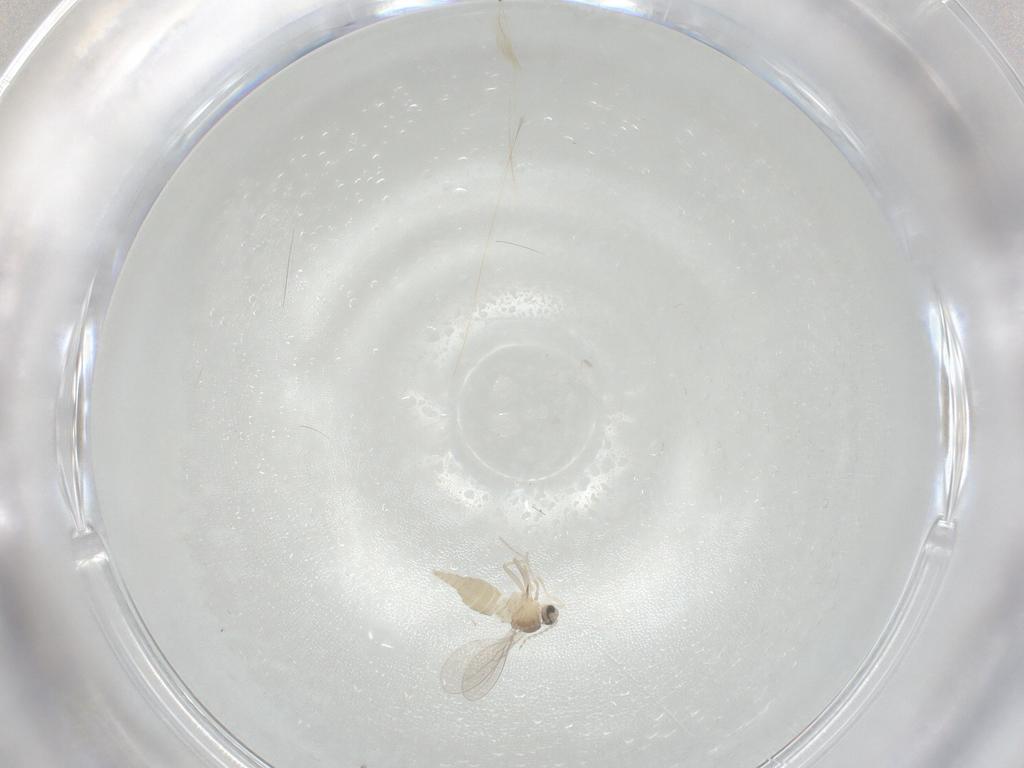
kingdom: Animalia
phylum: Arthropoda
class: Insecta
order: Diptera
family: Cecidomyiidae
